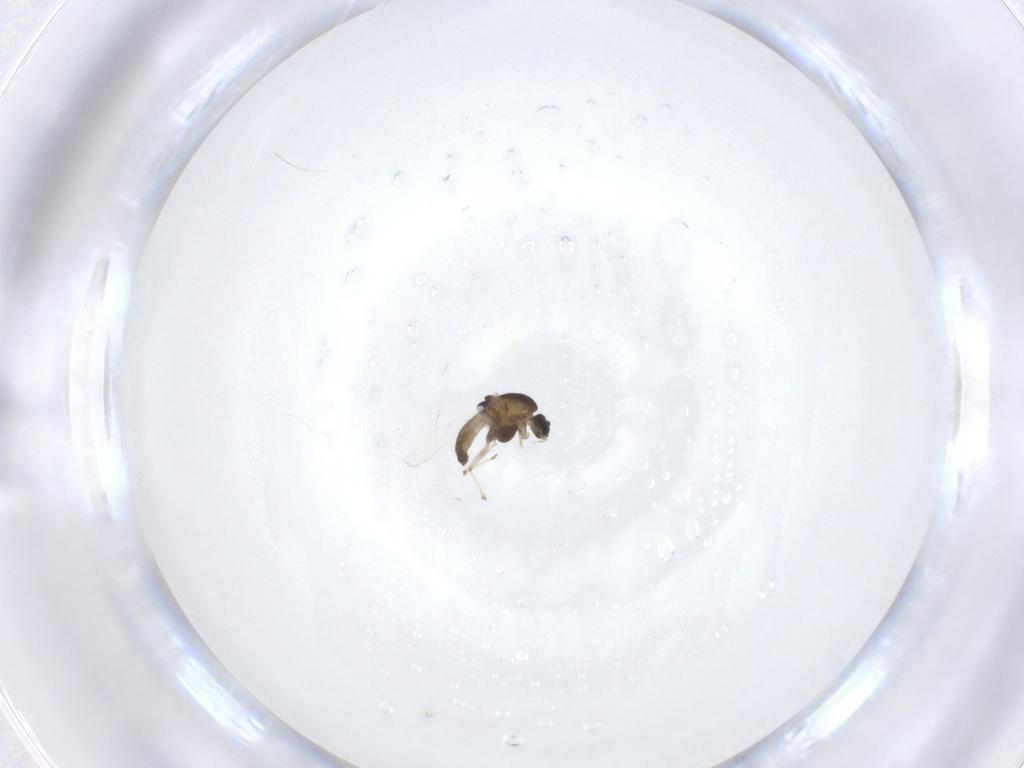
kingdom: Animalia
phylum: Arthropoda
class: Insecta
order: Diptera
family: Chironomidae
